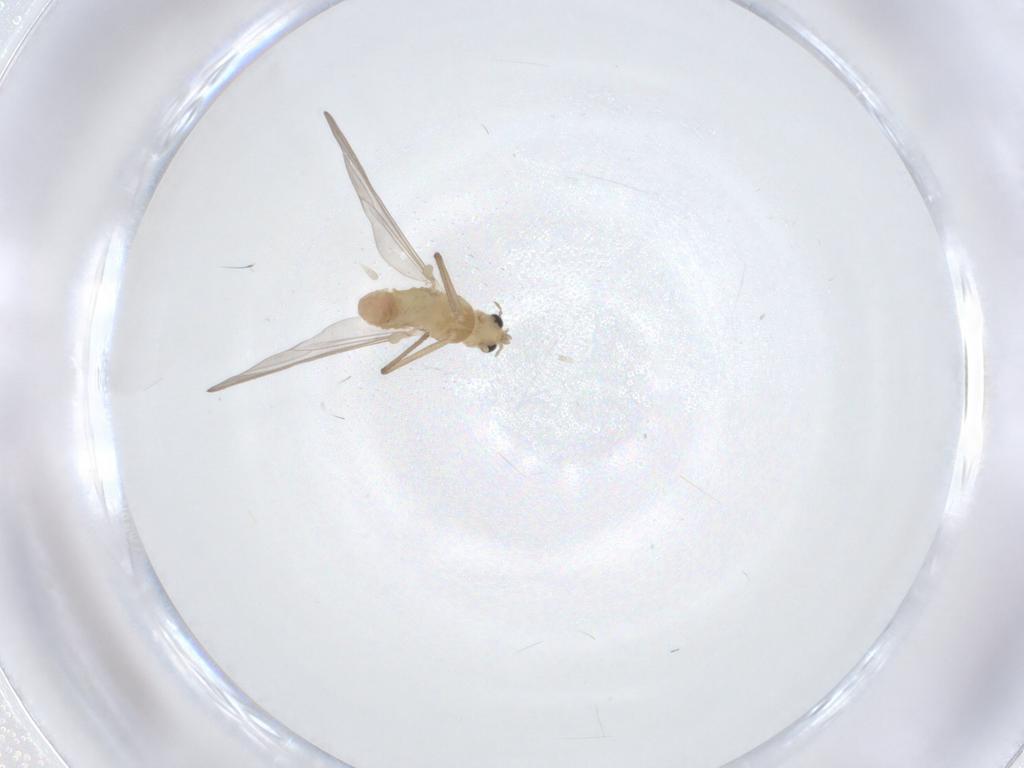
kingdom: Animalia
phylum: Arthropoda
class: Insecta
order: Diptera
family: Chironomidae
